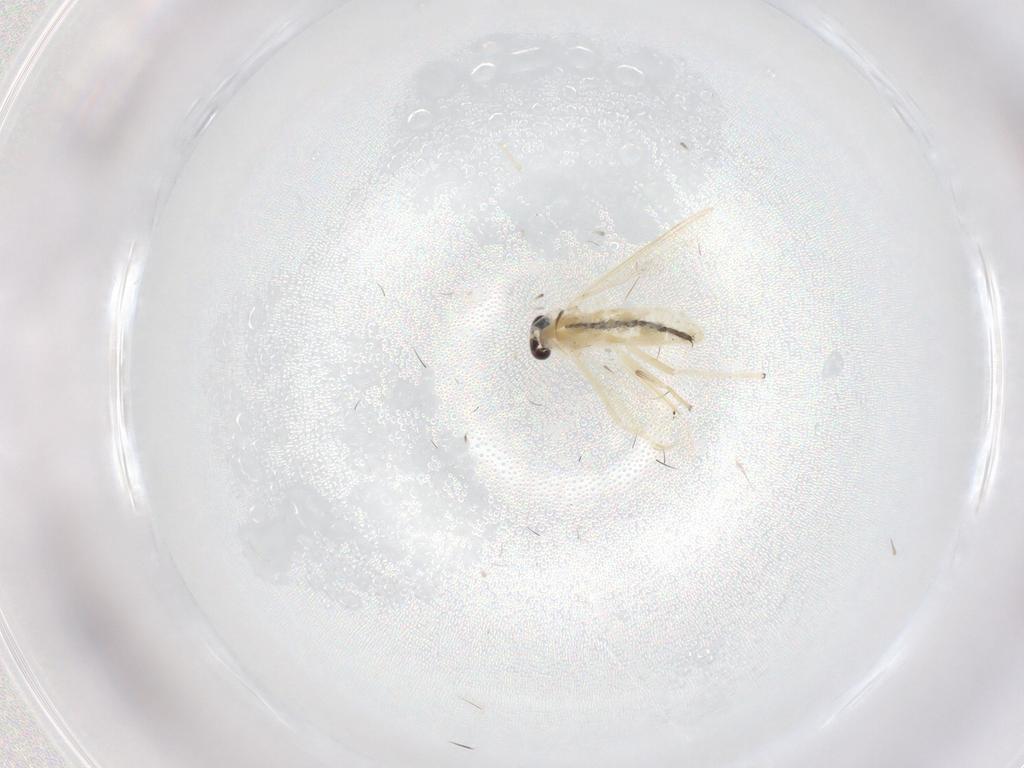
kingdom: Animalia
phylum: Arthropoda
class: Insecta
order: Diptera
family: Chironomidae
